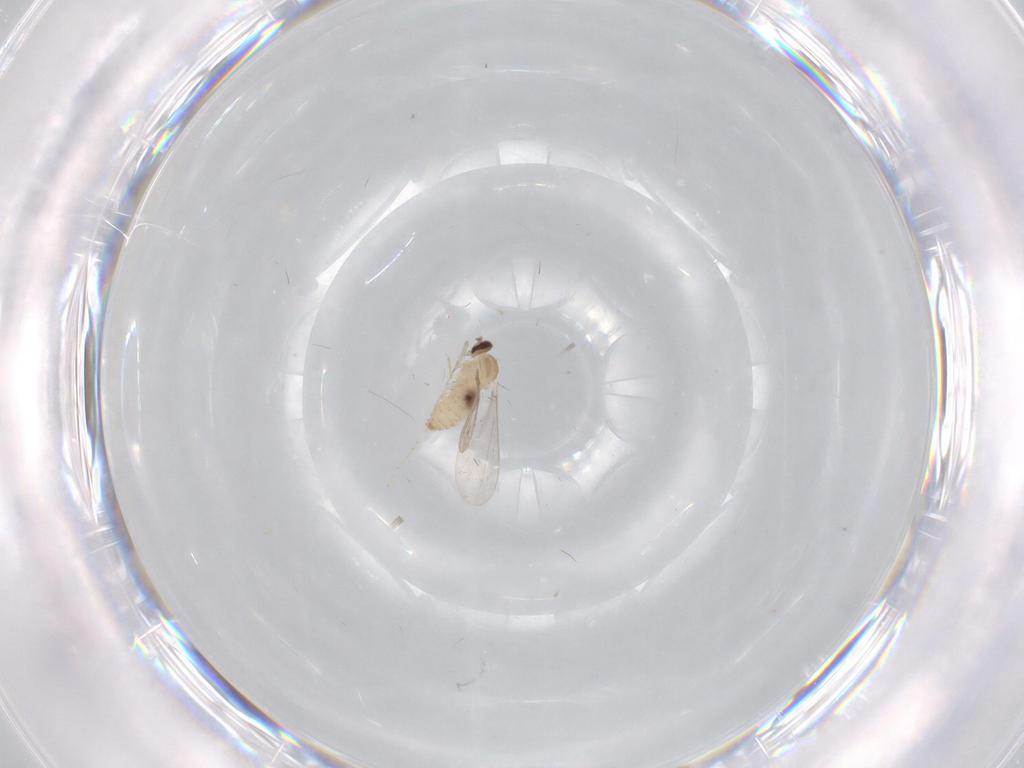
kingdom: Animalia
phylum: Arthropoda
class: Insecta
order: Diptera
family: Cecidomyiidae
